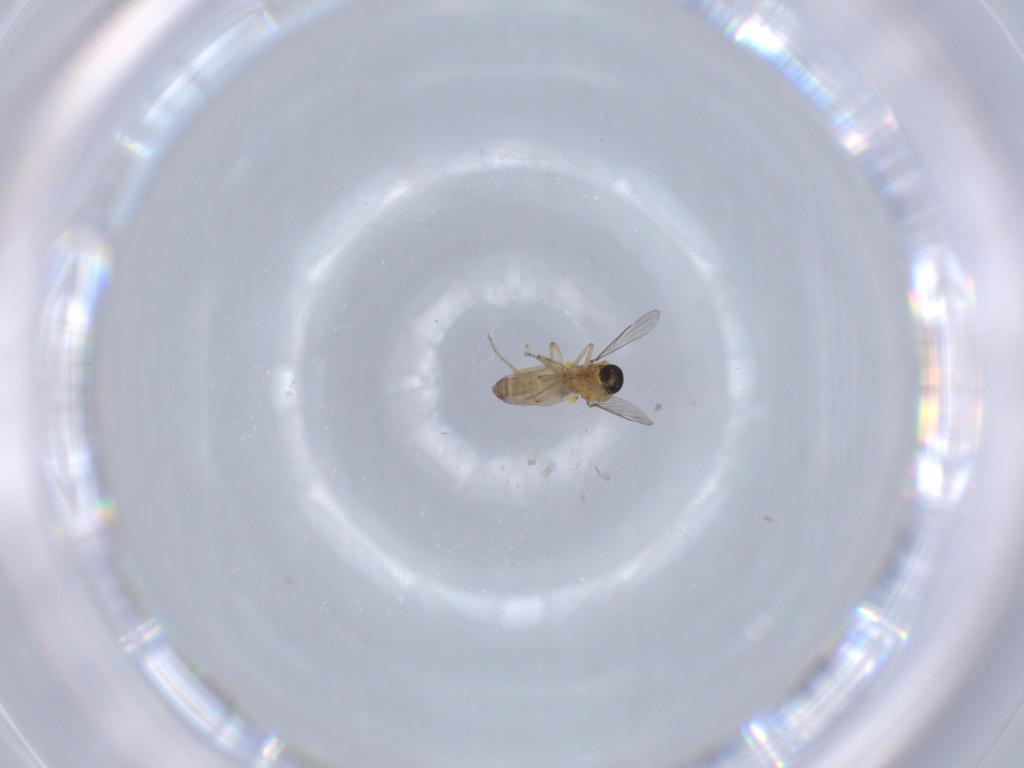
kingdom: Animalia
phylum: Arthropoda
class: Insecta
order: Diptera
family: Ceratopogonidae
